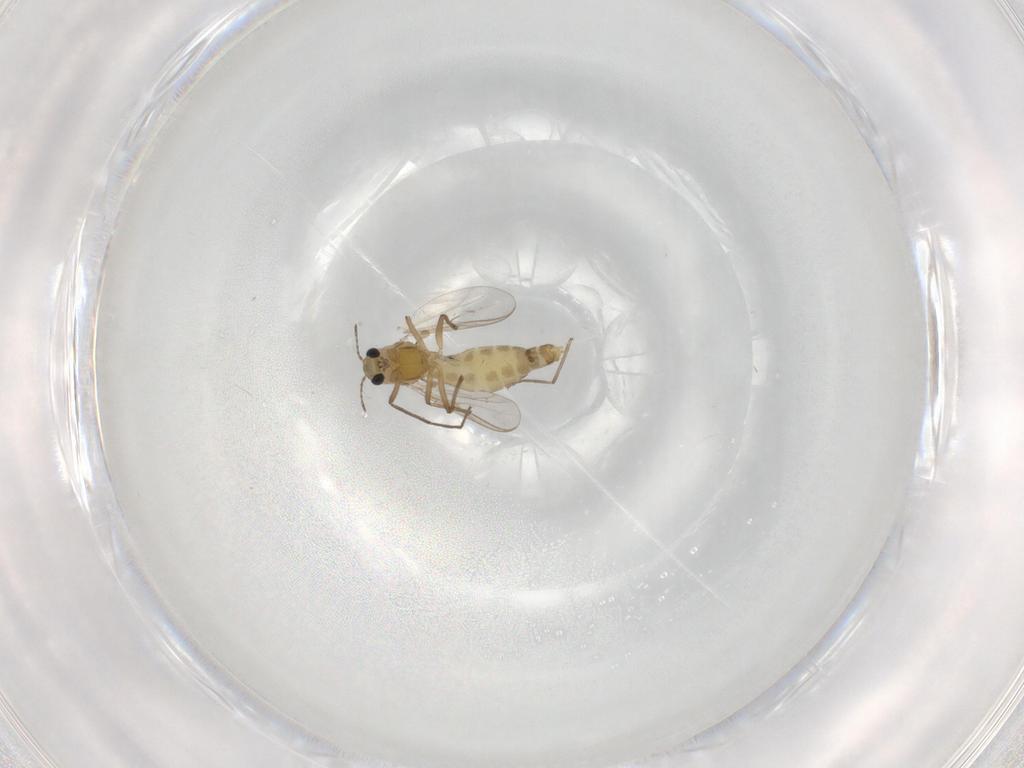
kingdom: Animalia
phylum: Arthropoda
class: Insecta
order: Diptera
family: Chironomidae
